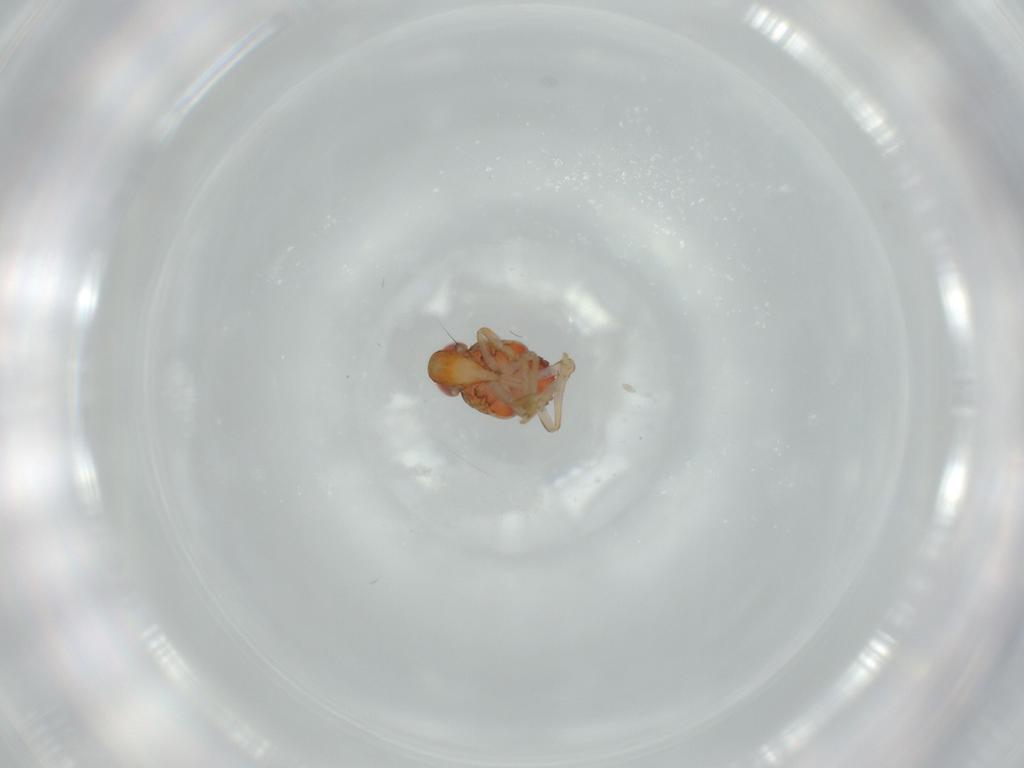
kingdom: Animalia
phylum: Arthropoda
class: Insecta
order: Hemiptera
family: Issidae
